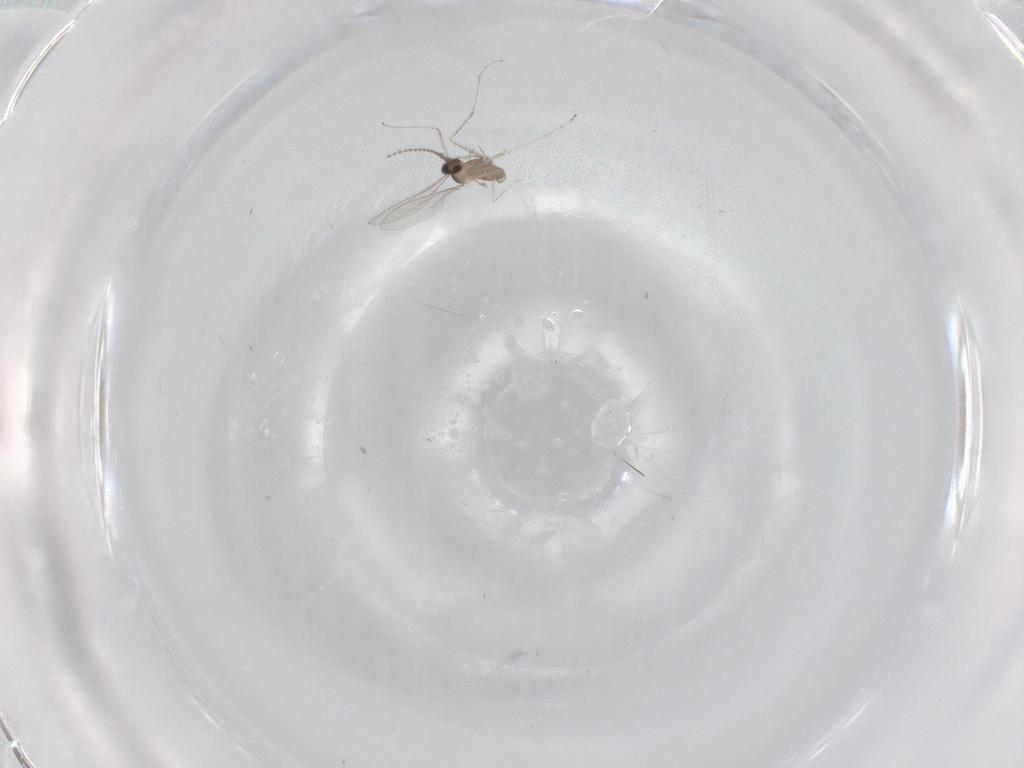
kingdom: Animalia
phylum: Arthropoda
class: Insecta
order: Diptera
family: Cecidomyiidae
